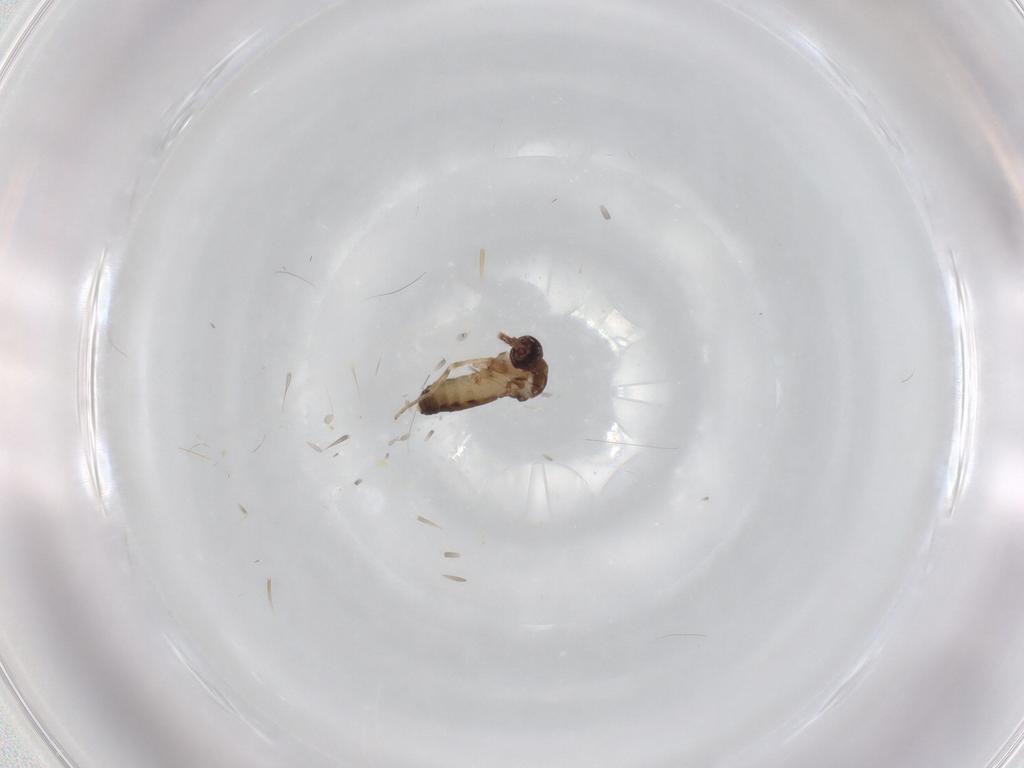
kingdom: Animalia
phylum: Arthropoda
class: Insecta
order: Diptera
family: Ceratopogonidae
